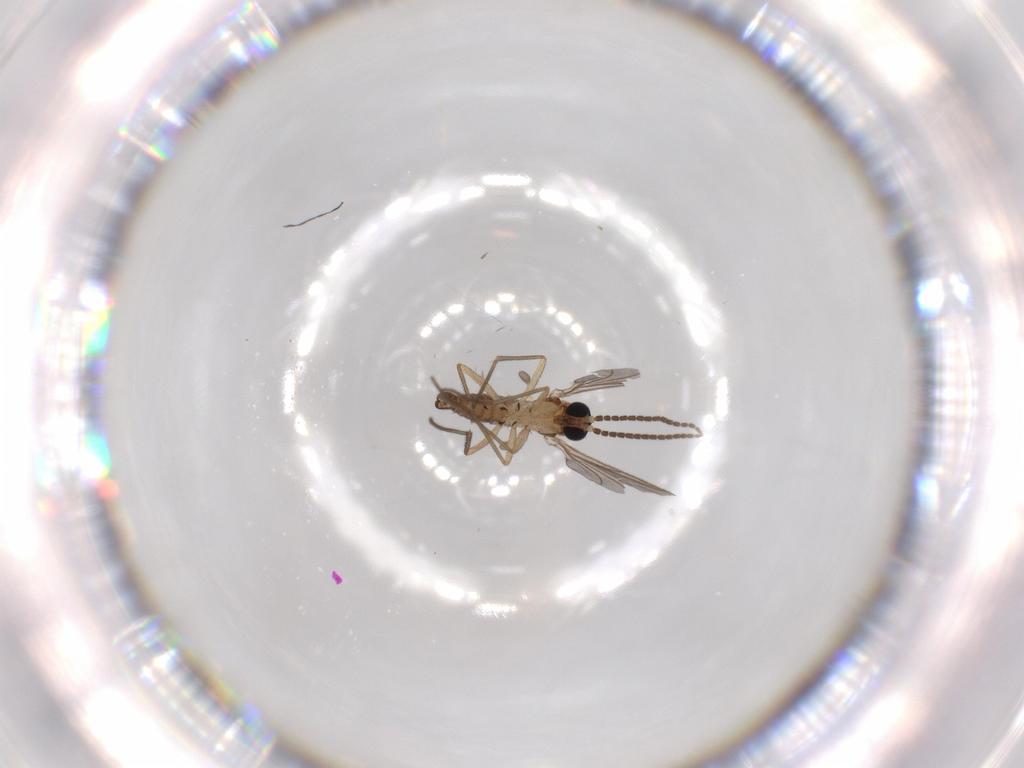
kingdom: Animalia
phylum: Arthropoda
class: Insecta
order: Diptera
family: Sciaridae
